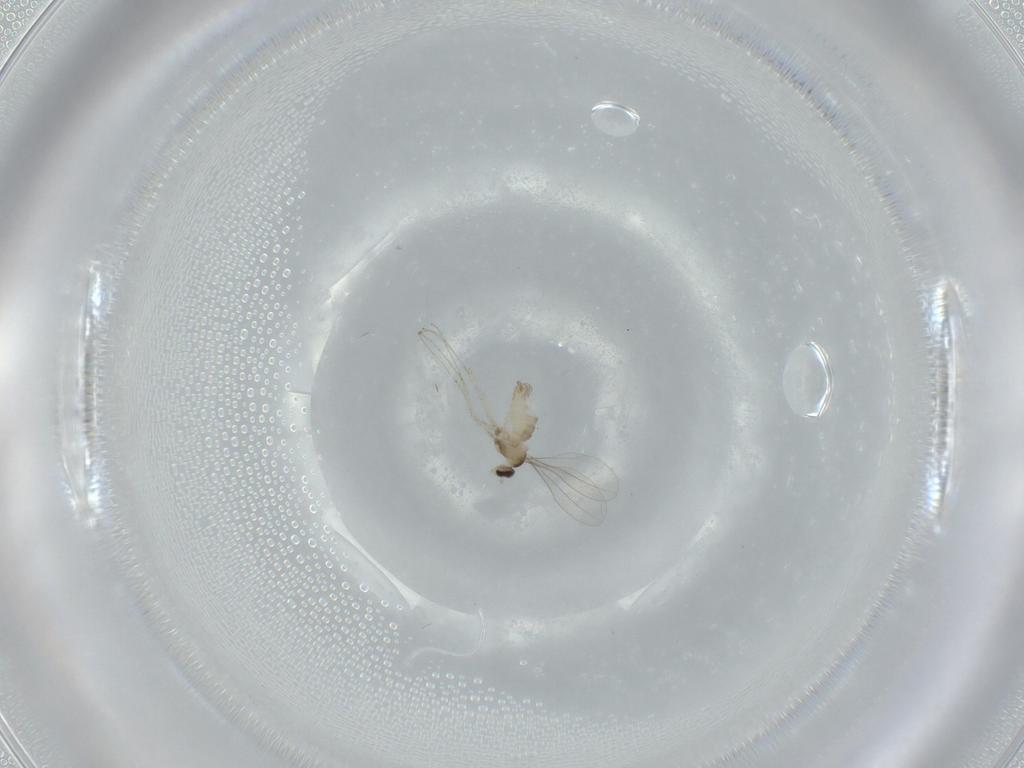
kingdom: Animalia
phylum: Arthropoda
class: Insecta
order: Diptera
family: Cecidomyiidae
